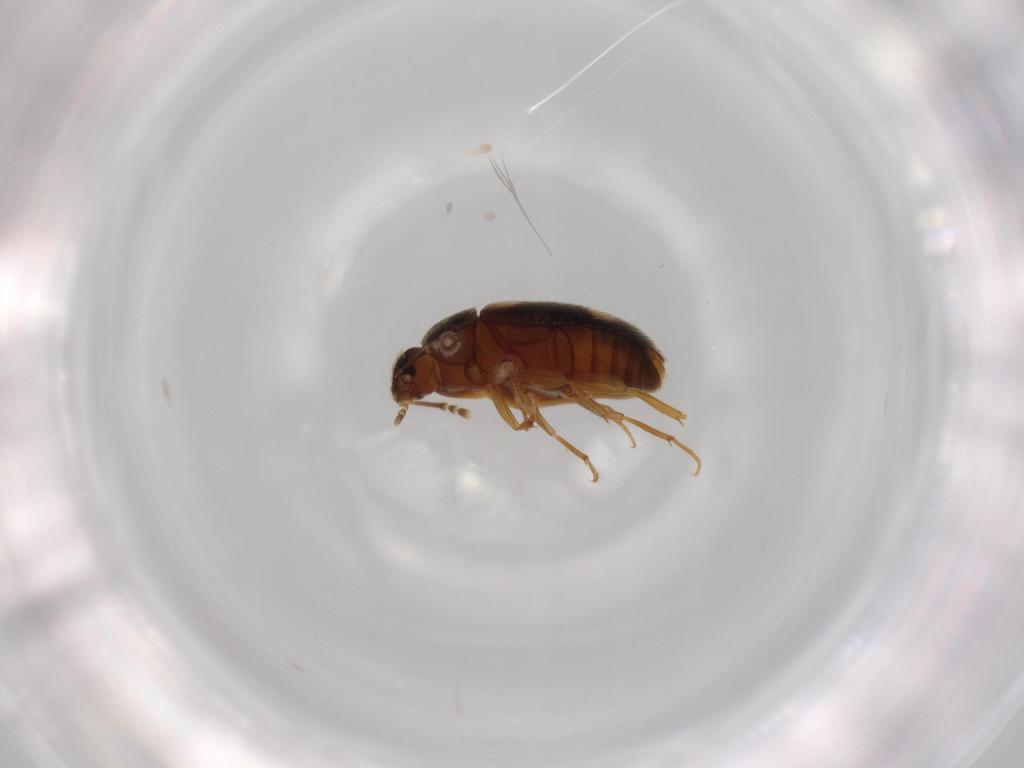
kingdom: Animalia
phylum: Arthropoda
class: Insecta
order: Coleoptera
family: Mycetophagidae
